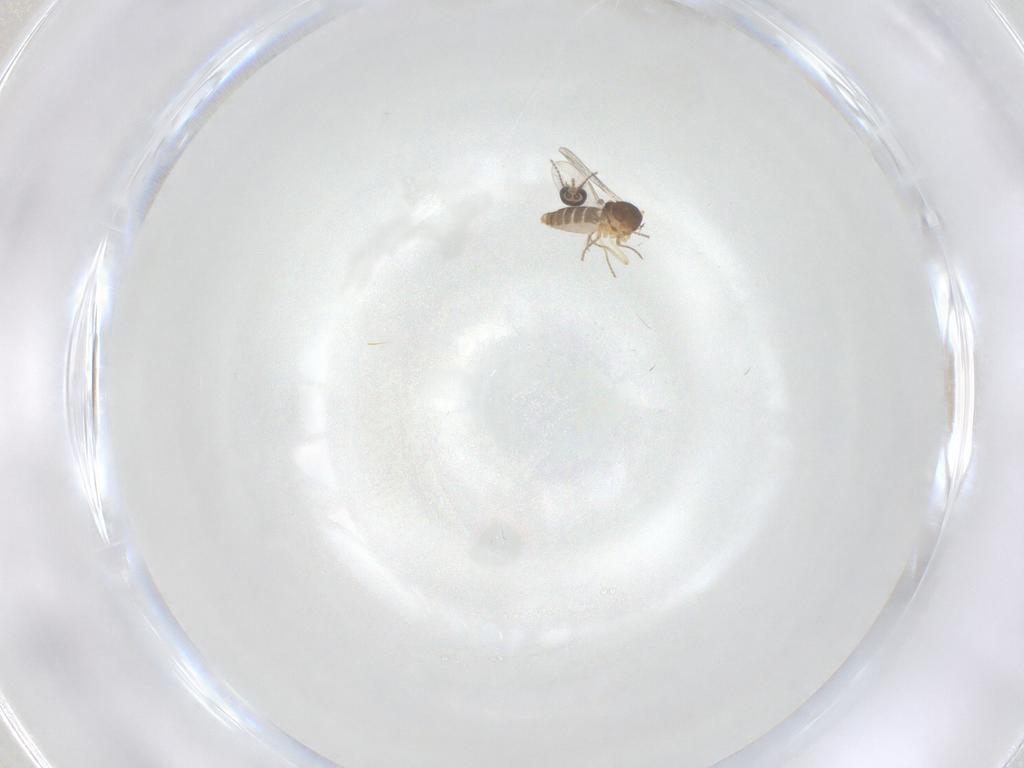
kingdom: Animalia
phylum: Arthropoda
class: Insecta
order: Diptera
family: Ceratopogonidae
